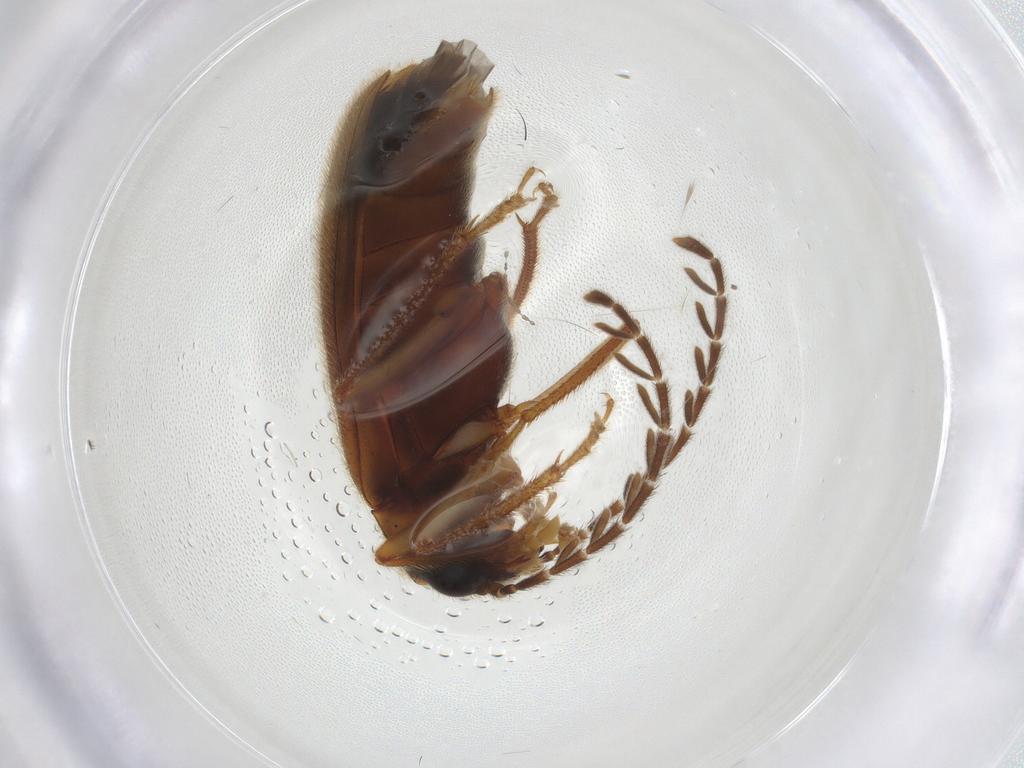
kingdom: Animalia
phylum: Arthropoda
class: Insecta
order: Coleoptera
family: Ptilodactylidae
